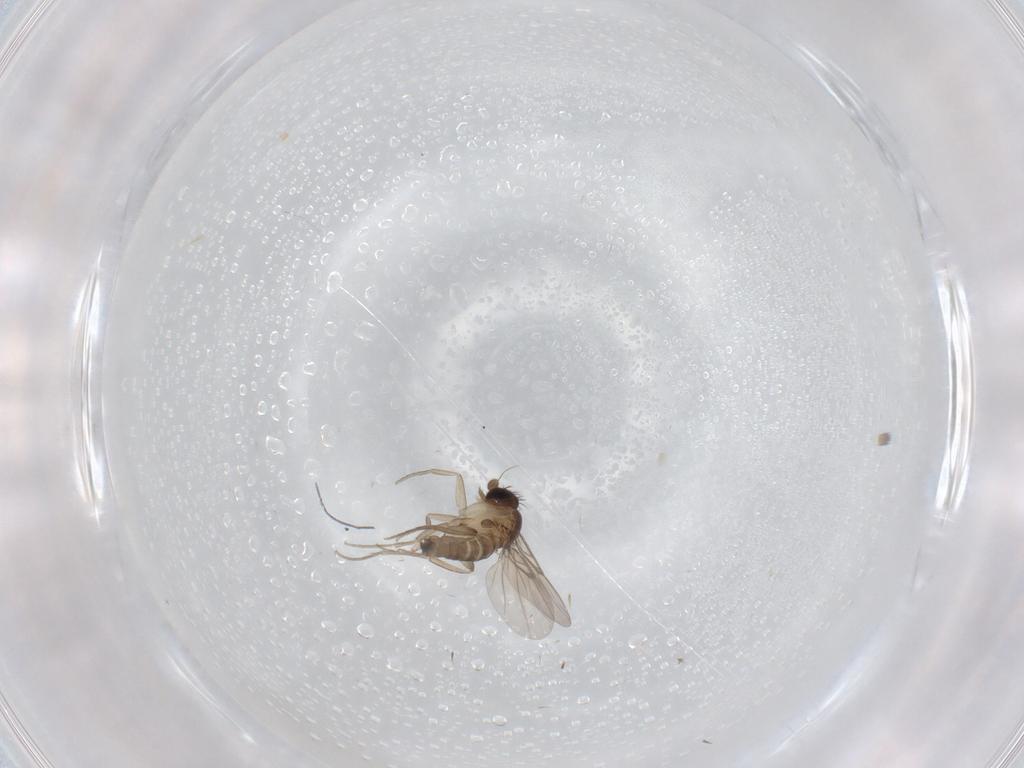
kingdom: Animalia
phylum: Arthropoda
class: Insecta
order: Diptera
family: Phoridae
